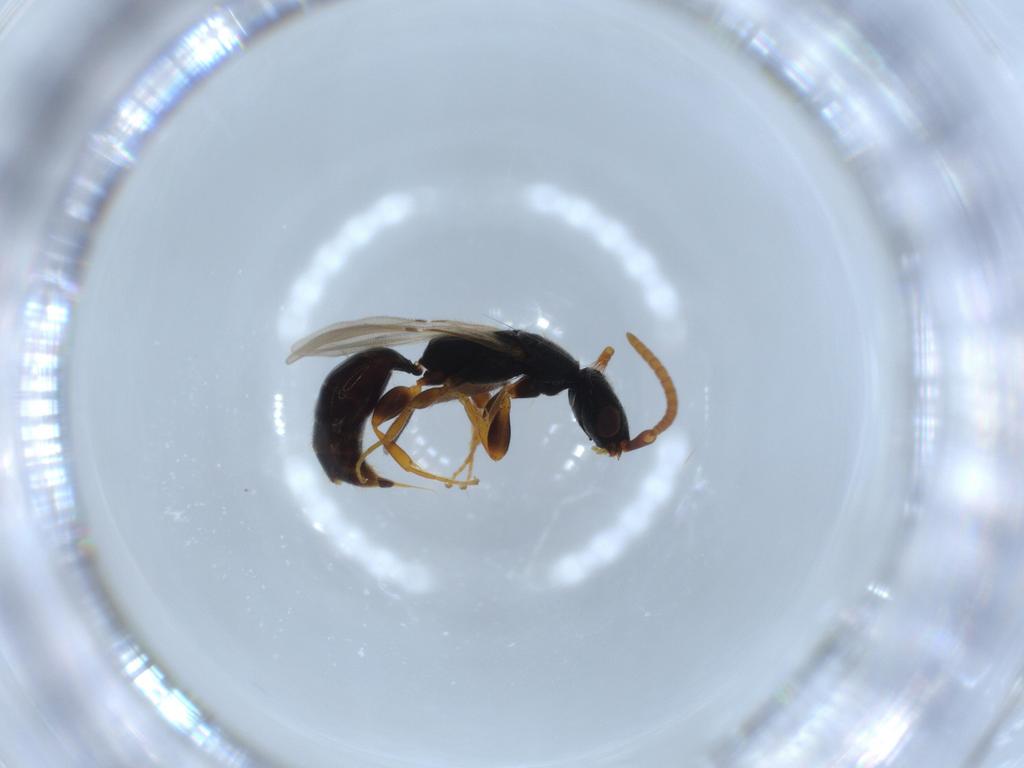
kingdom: Animalia
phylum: Arthropoda
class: Insecta
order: Hymenoptera
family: Bethylidae
